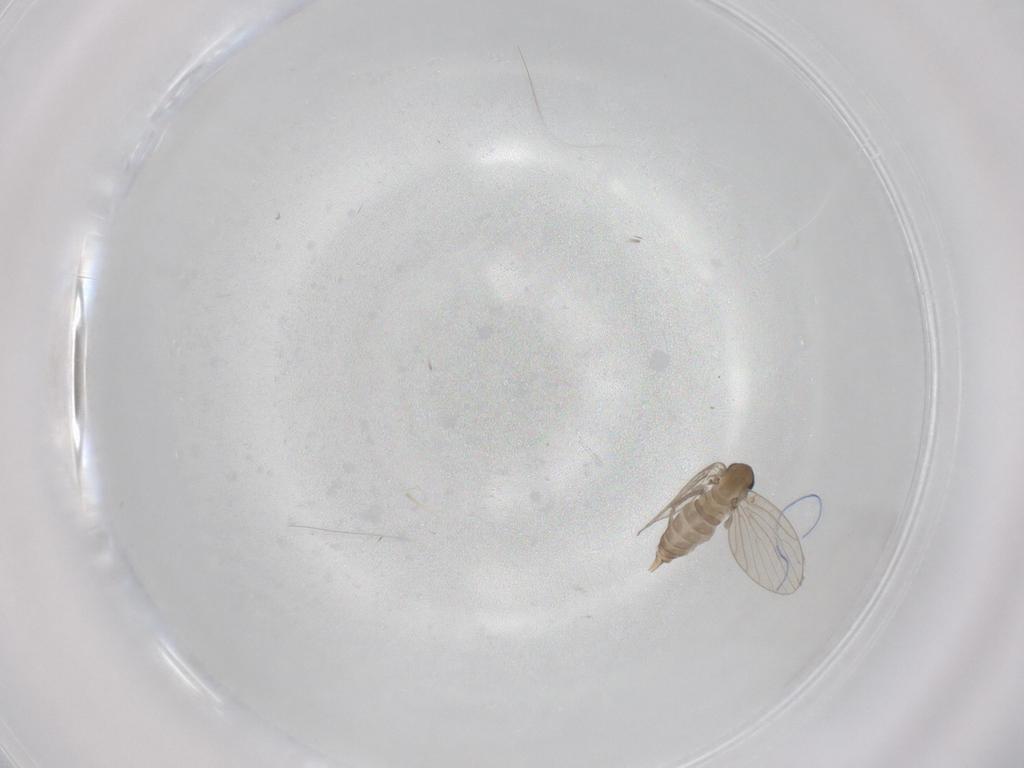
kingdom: Animalia
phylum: Arthropoda
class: Insecta
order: Diptera
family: Psychodidae
